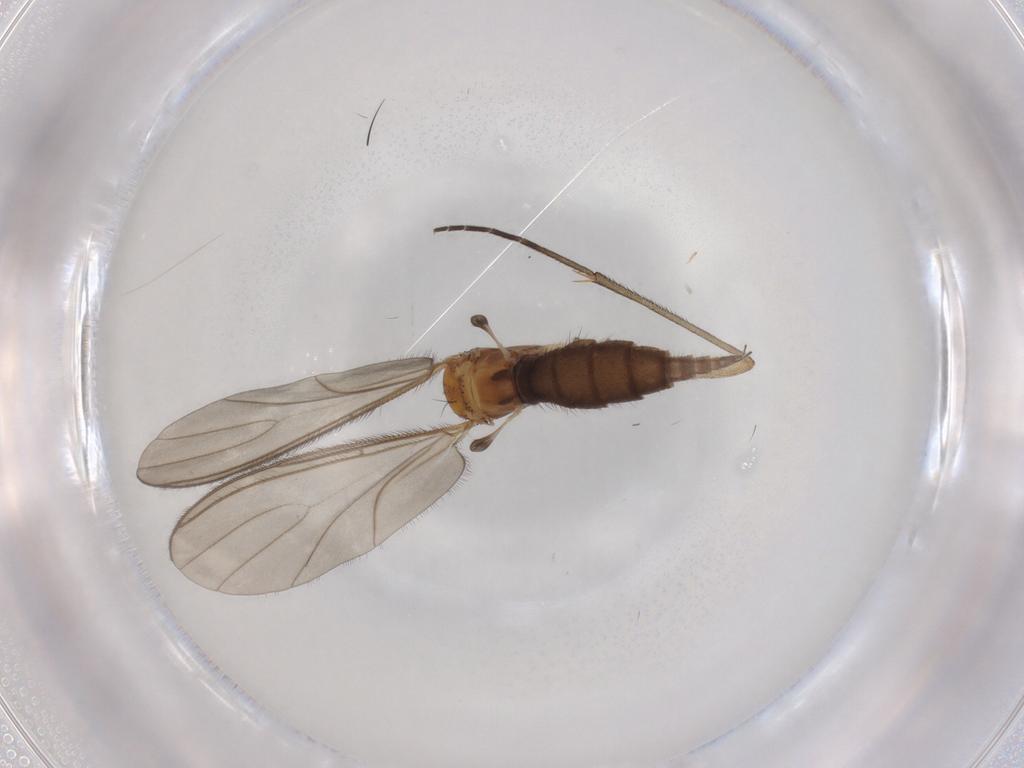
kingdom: Animalia
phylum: Arthropoda
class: Insecta
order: Diptera
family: Sciaridae
